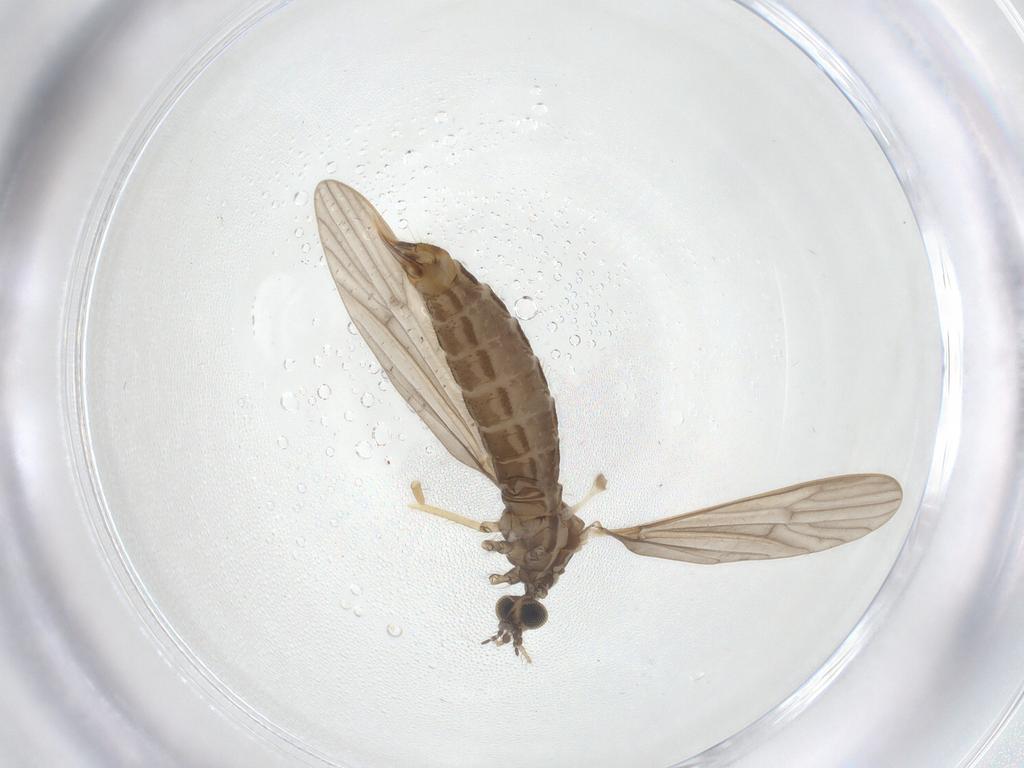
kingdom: Animalia
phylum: Arthropoda
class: Insecta
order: Diptera
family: Limoniidae
